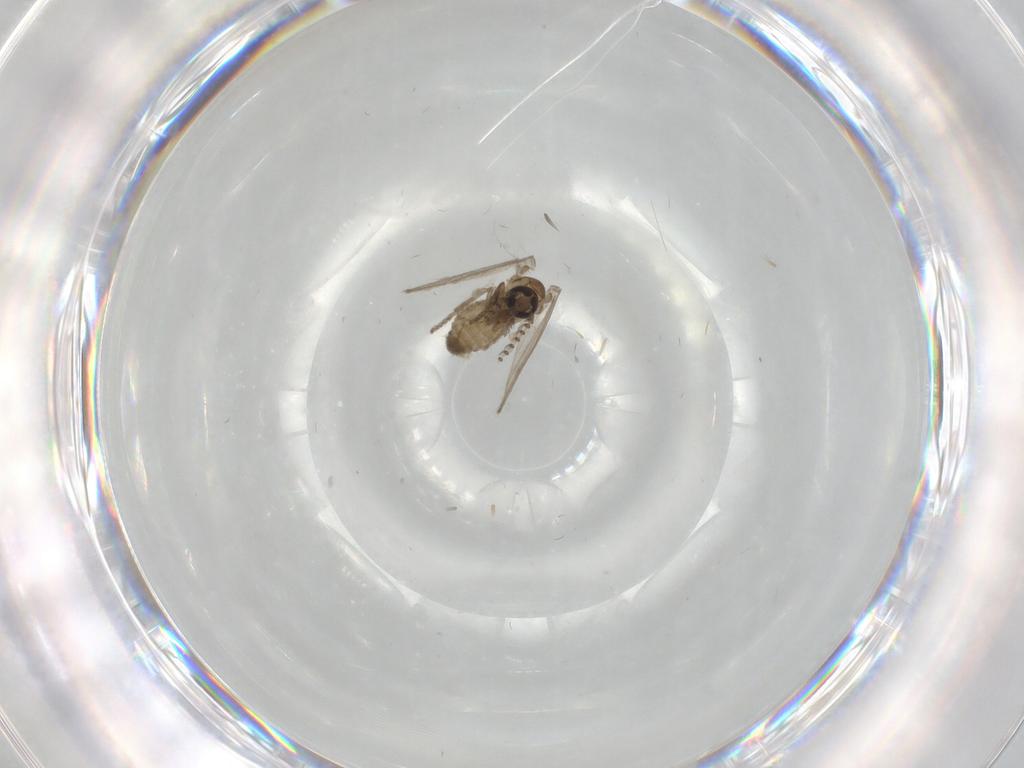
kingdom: Animalia
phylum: Arthropoda
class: Insecta
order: Diptera
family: Psychodidae
